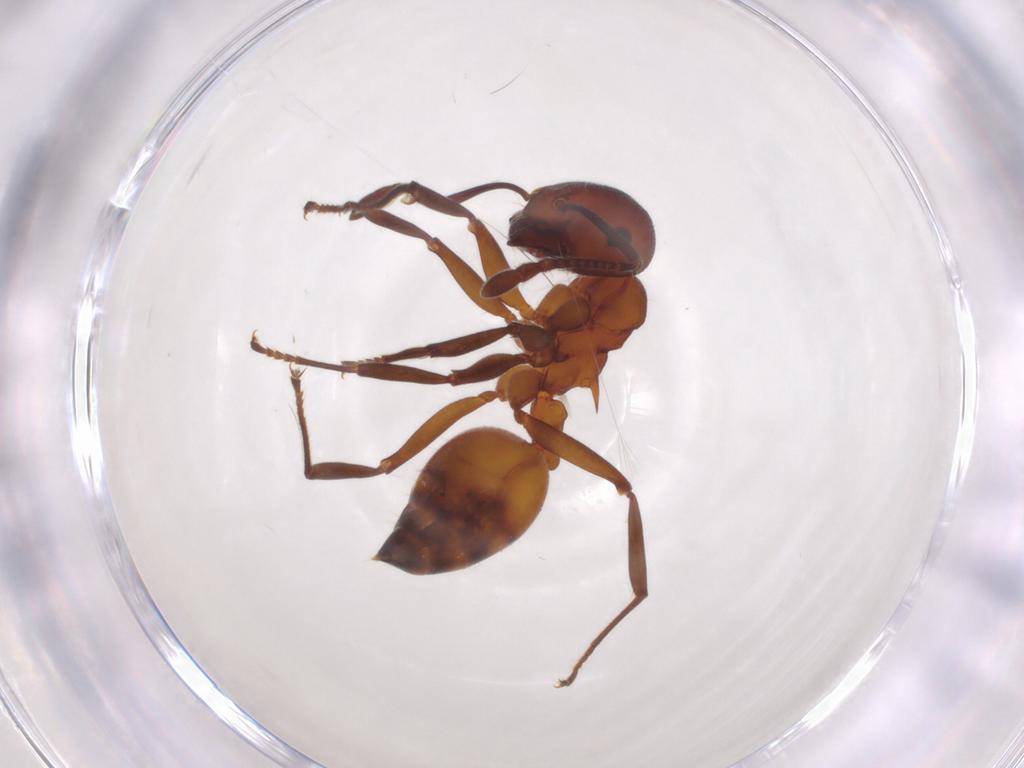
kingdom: Animalia
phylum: Arthropoda
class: Insecta
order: Hymenoptera
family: Formicidae
